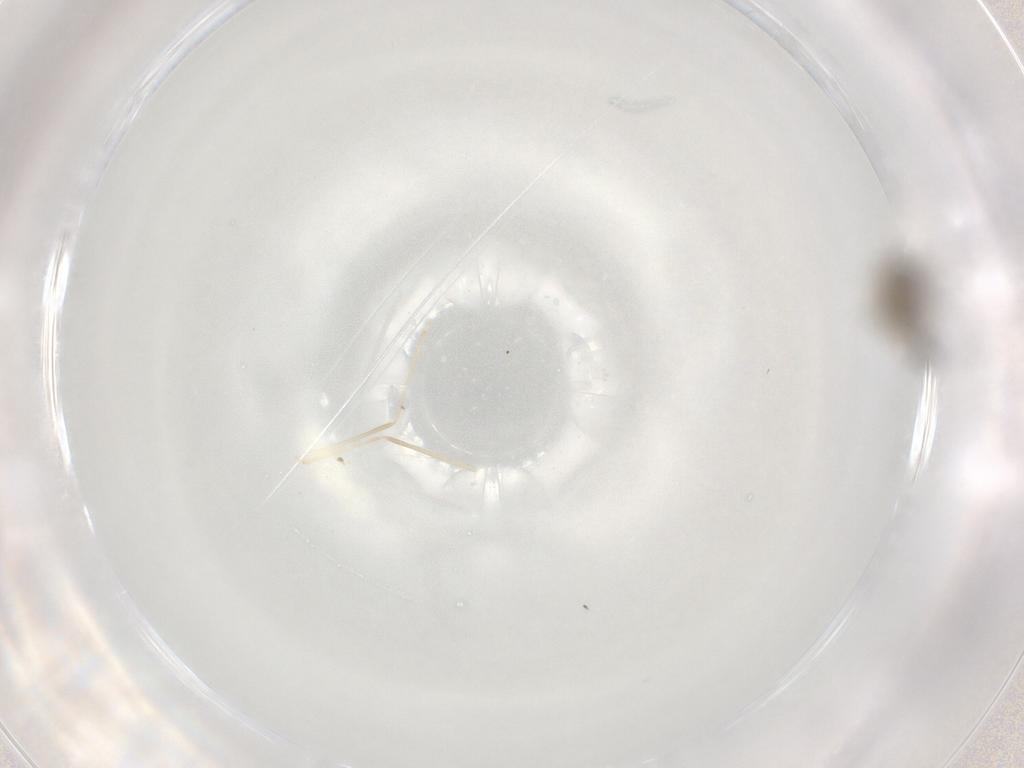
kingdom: Animalia
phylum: Arthropoda
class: Insecta
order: Diptera
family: Cecidomyiidae
